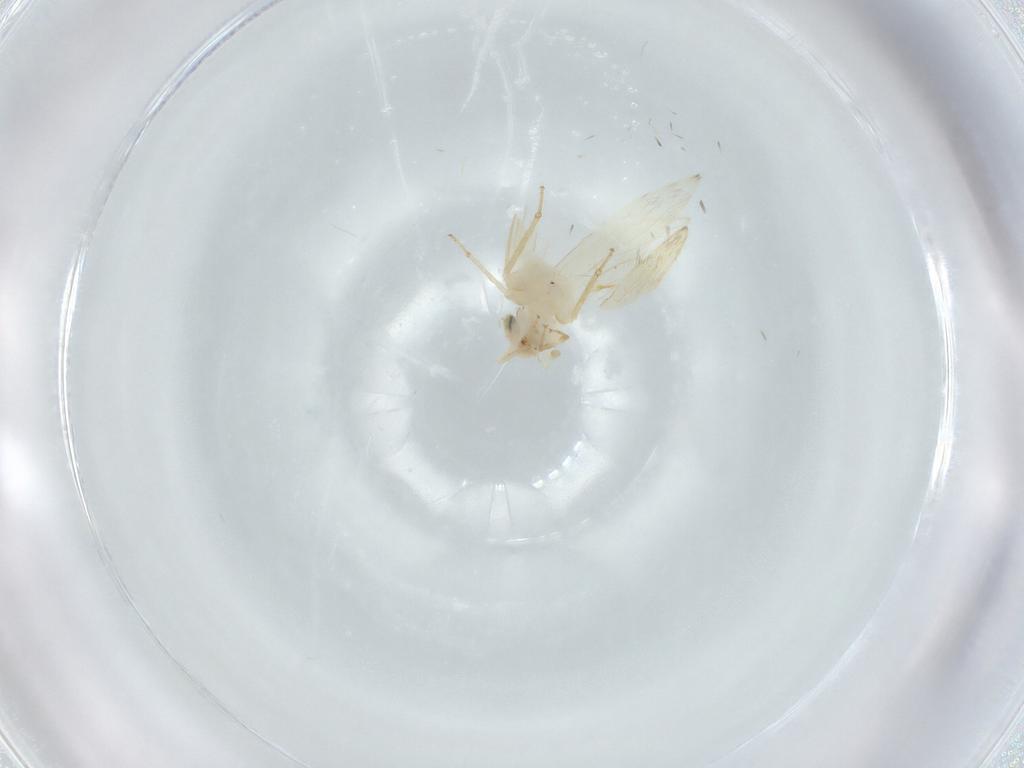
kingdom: Animalia
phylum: Arthropoda
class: Insecta
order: Psocodea
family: Lepidopsocidae
